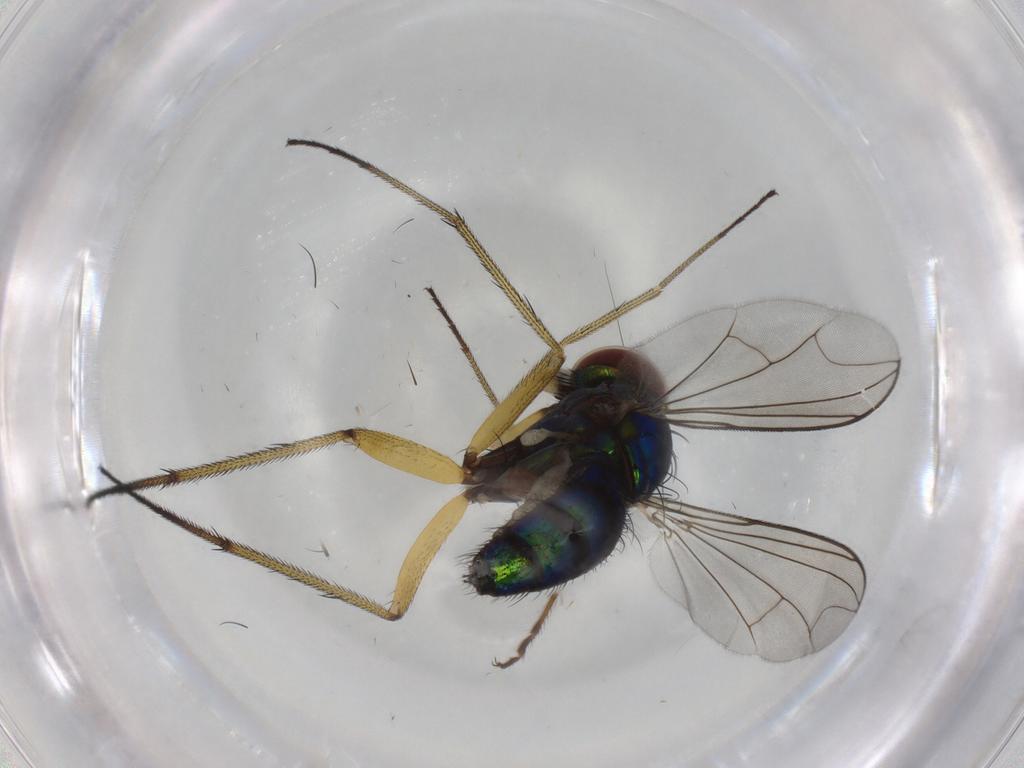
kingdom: Animalia
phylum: Arthropoda
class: Insecta
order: Diptera
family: Dolichopodidae
